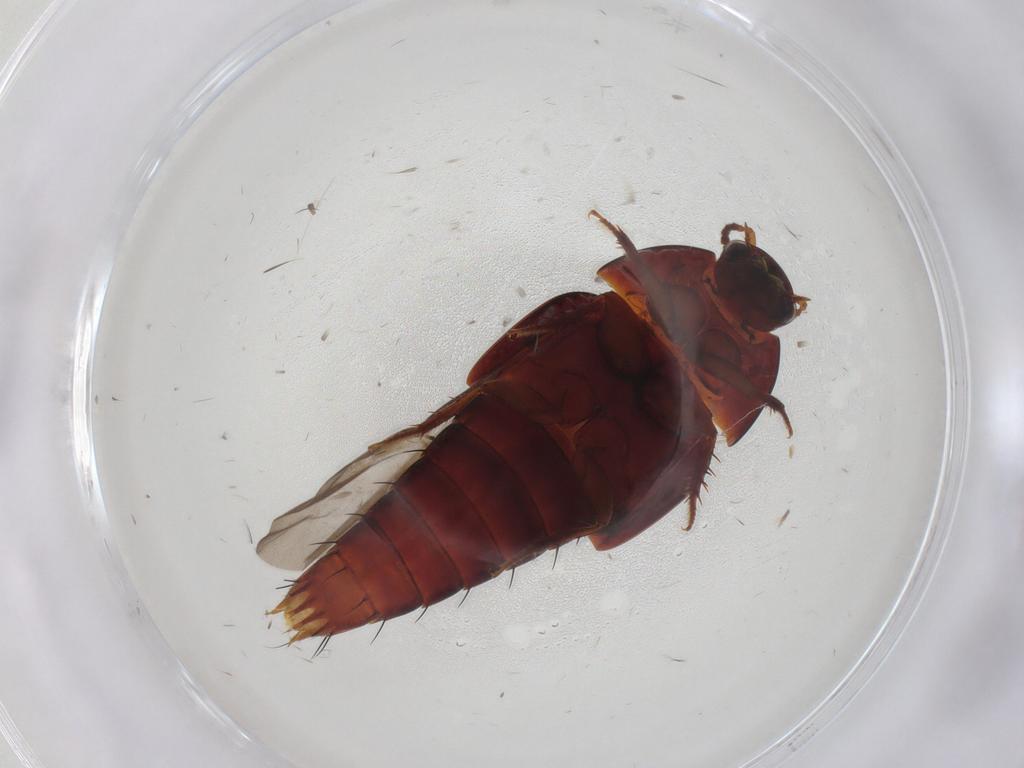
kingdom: Animalia
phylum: Arthropoda
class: Insecta
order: Coleoptera
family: Staphylinidae
